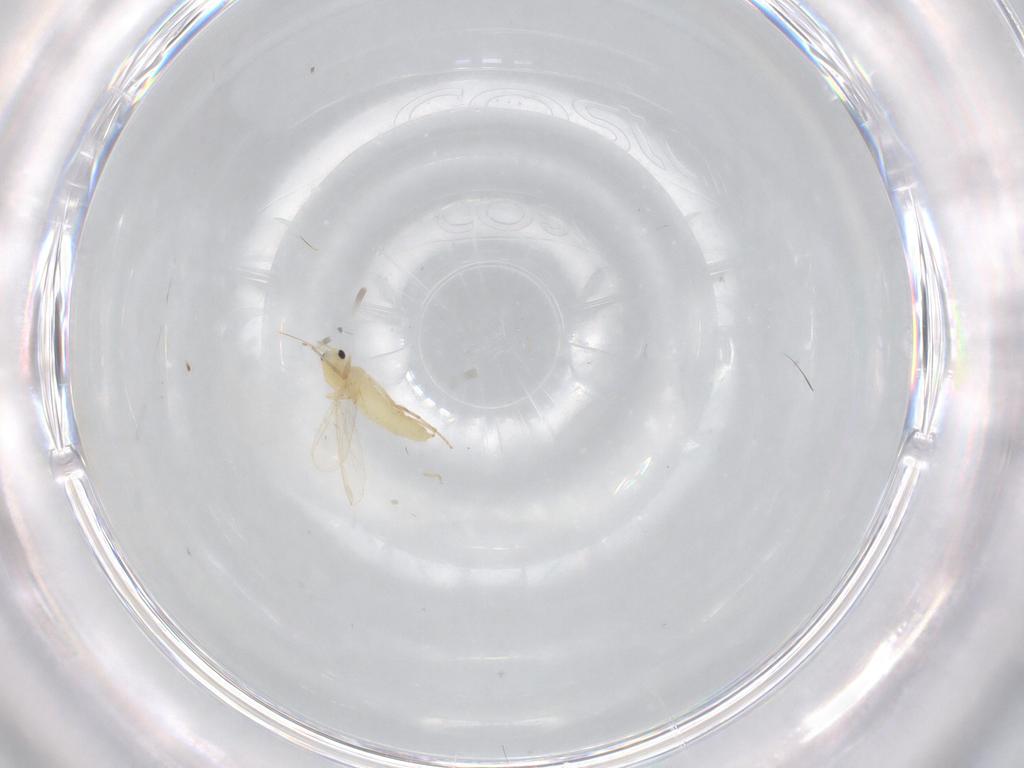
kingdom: Animalia
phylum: Arthropoda
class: Insecta
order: Diptera
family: Chironomidae
